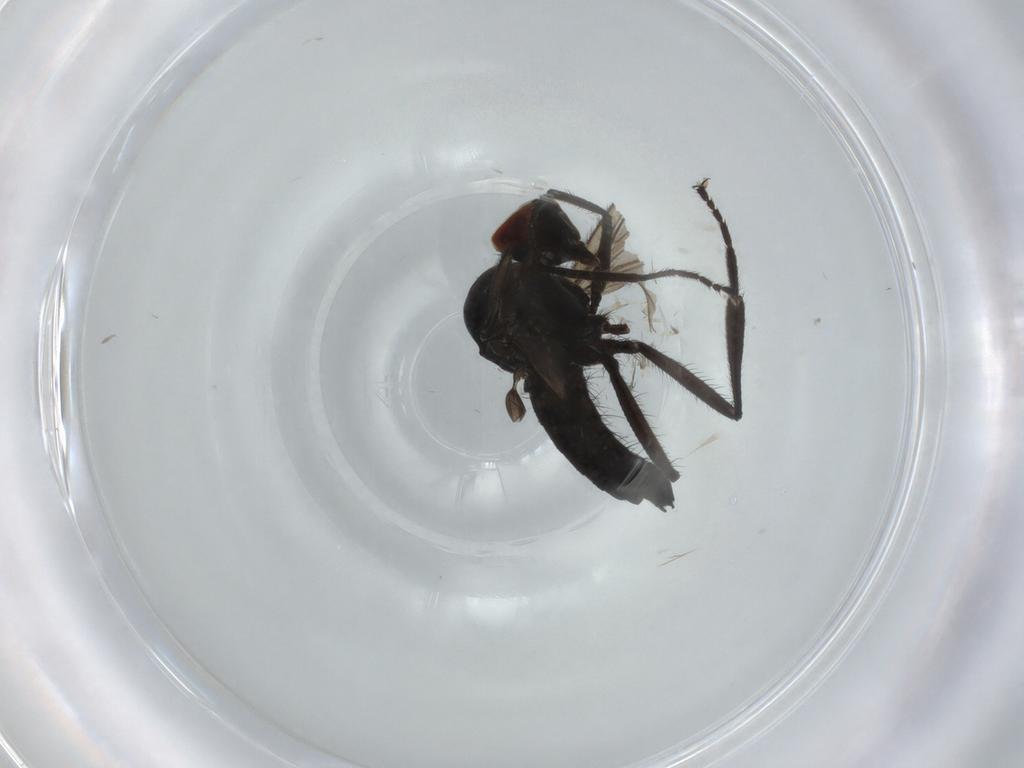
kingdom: Animalia
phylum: Arthropoda
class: Insecta
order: Diptera
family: Hybotidae
